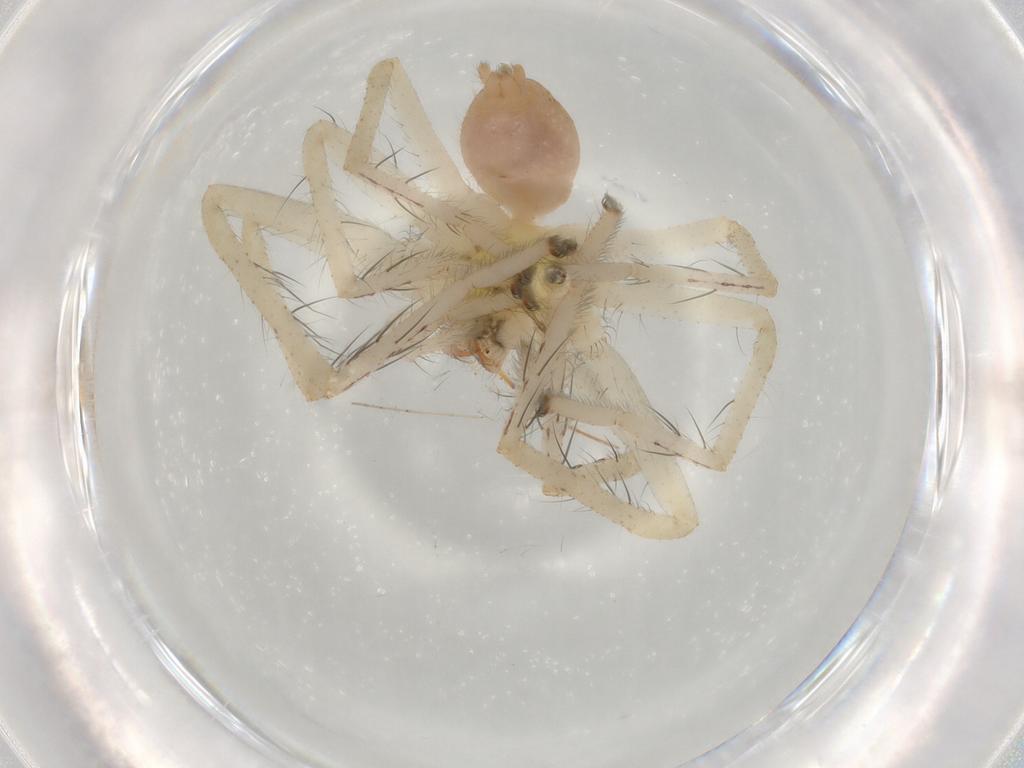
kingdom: Animalia
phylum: Arthropoda
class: Arachnida
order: Araneae
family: Sparassidae
